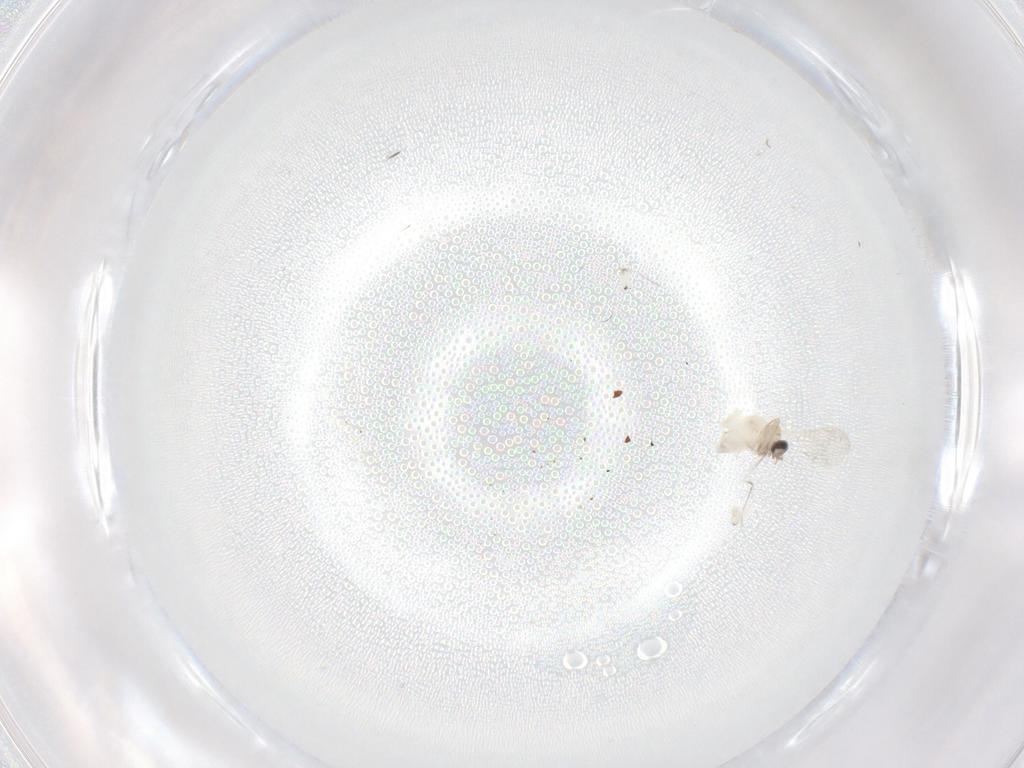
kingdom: Animalia
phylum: Arthropoda
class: Insecta
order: Diptera
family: Cecidomyiidae
